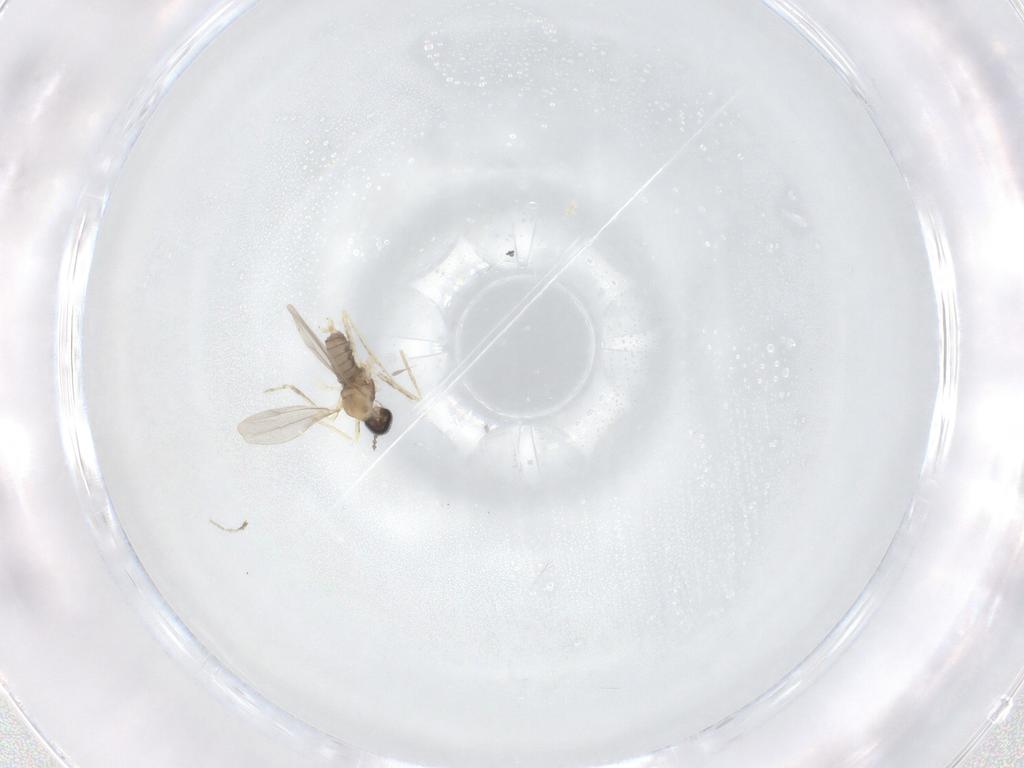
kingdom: Animalia
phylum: Arthropoda
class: Insecta
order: Diptera
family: Cecidomyiidae
